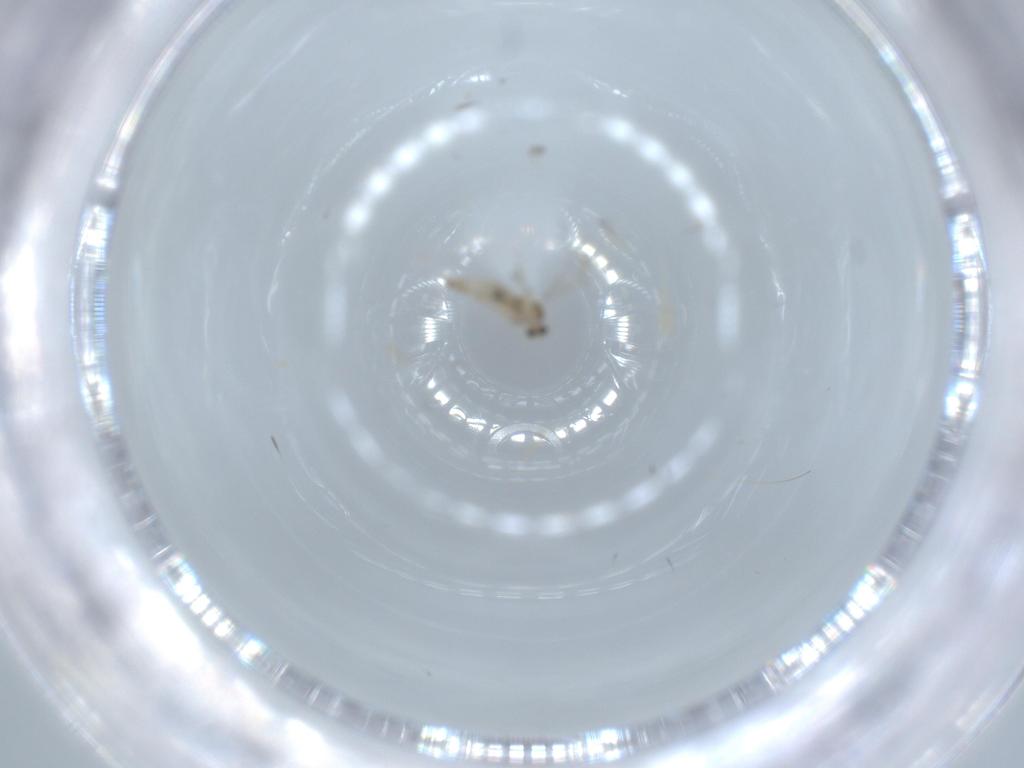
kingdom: Animalia
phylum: Arthropoda
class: Insecta
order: Diptera
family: Cecidomyiidae
